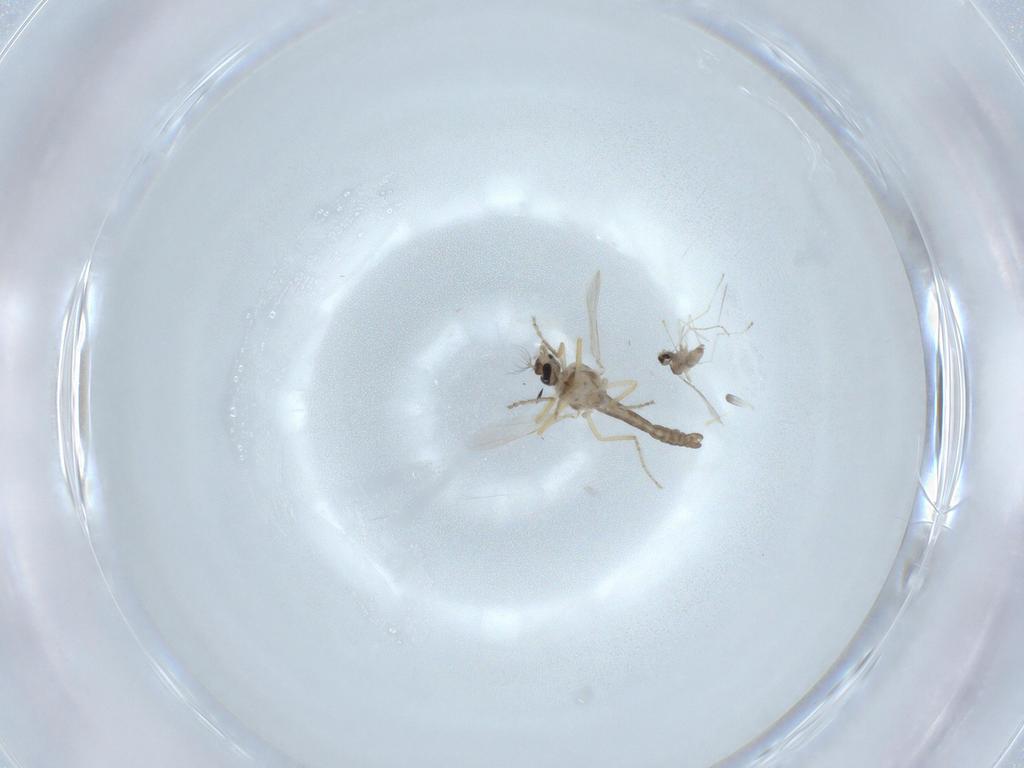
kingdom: Animalia
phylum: Arthropoda
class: Insecta
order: Diptera
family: Ceratopogonidae
